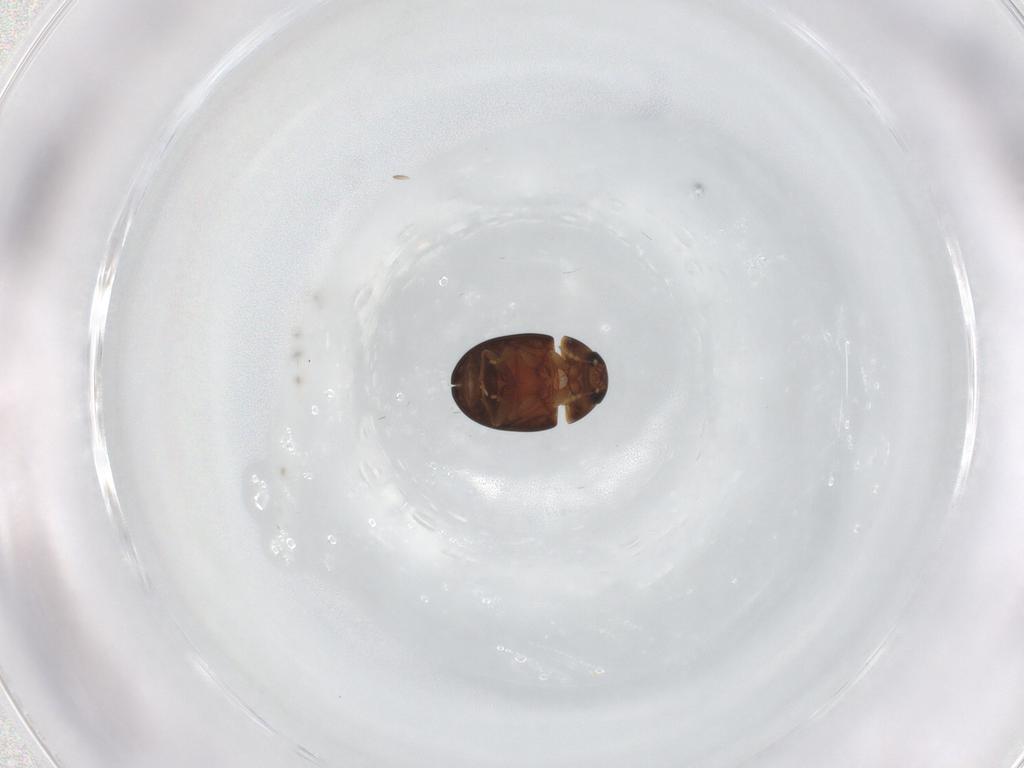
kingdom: Animalia
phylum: Arthropoda
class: Insecta
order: Coleoptera
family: Phalacridae
